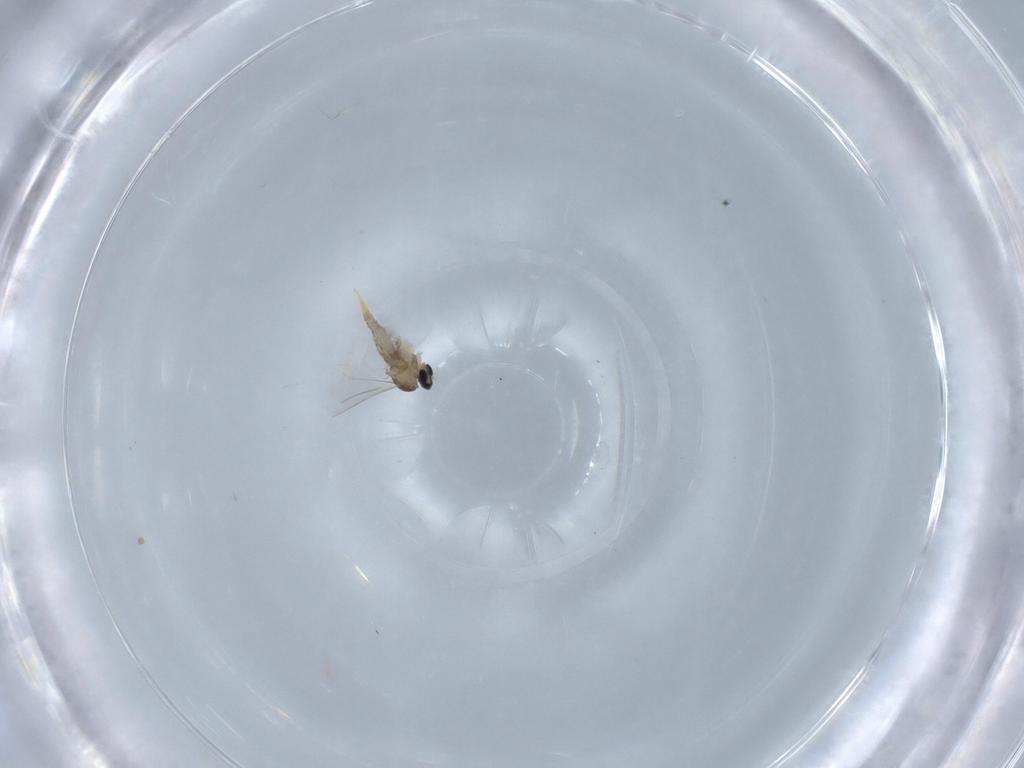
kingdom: Animalia
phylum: Arthropoda
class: Insecta
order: Diptera
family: Cecidomyiidae
